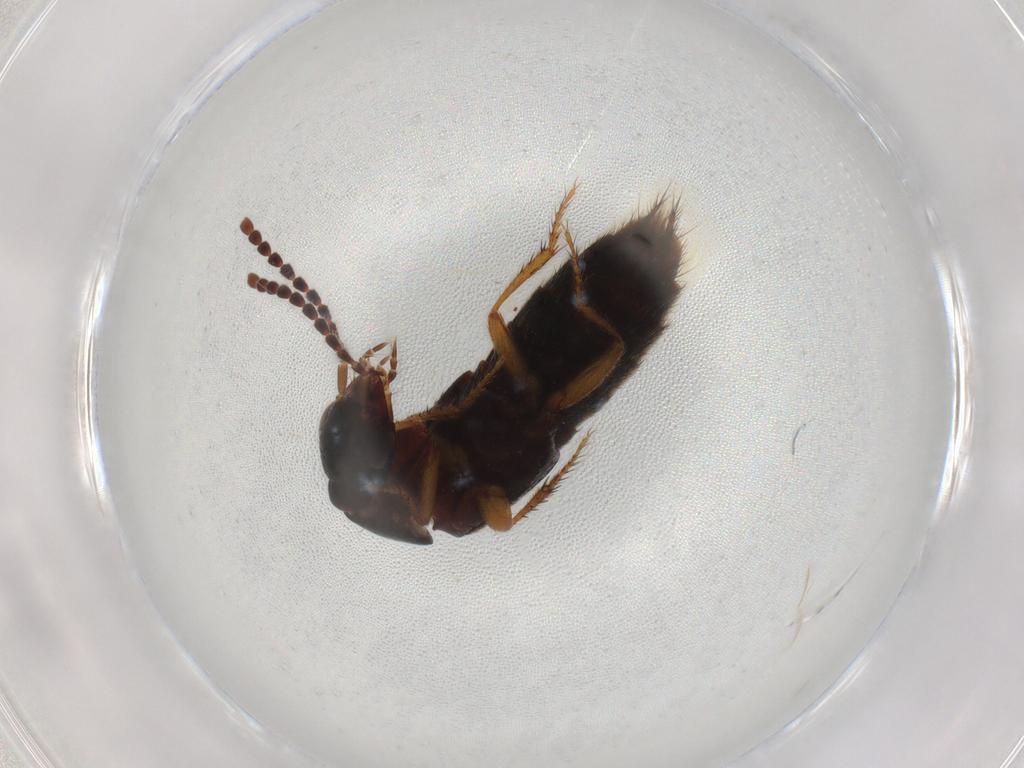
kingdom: Animalia
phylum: Arthropoda
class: Insecta
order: Coleoptera
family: Staphylinidae
